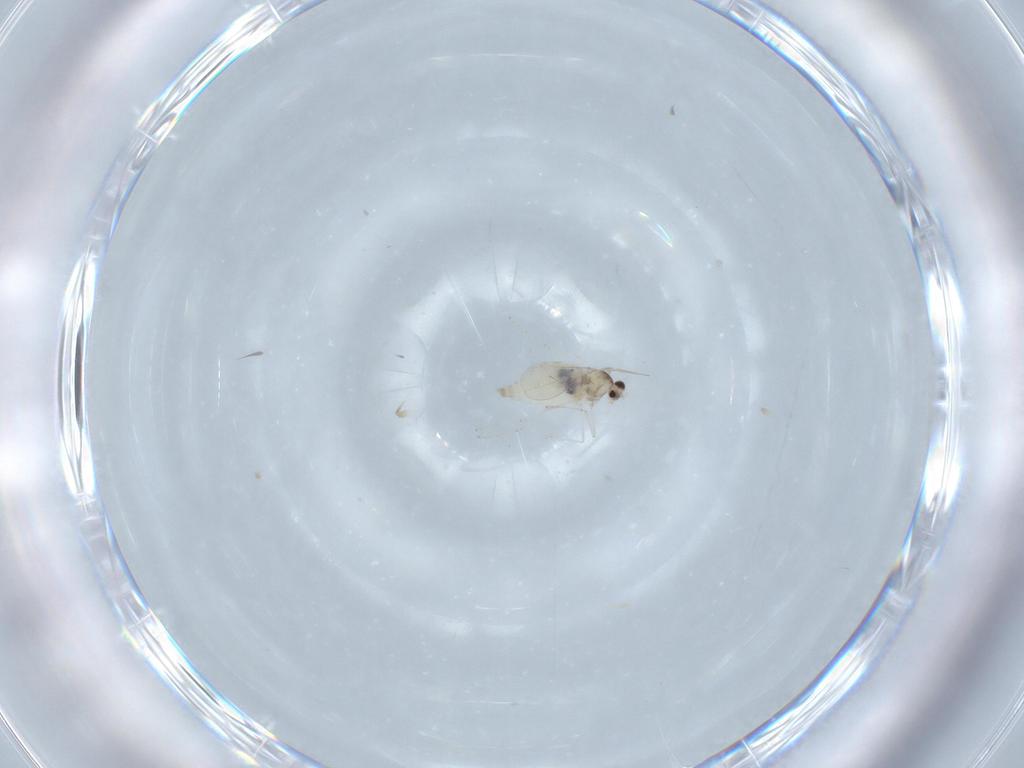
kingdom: Animalia
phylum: Arthropoda
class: Insecta
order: Diptera
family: Cecidomyiidae
